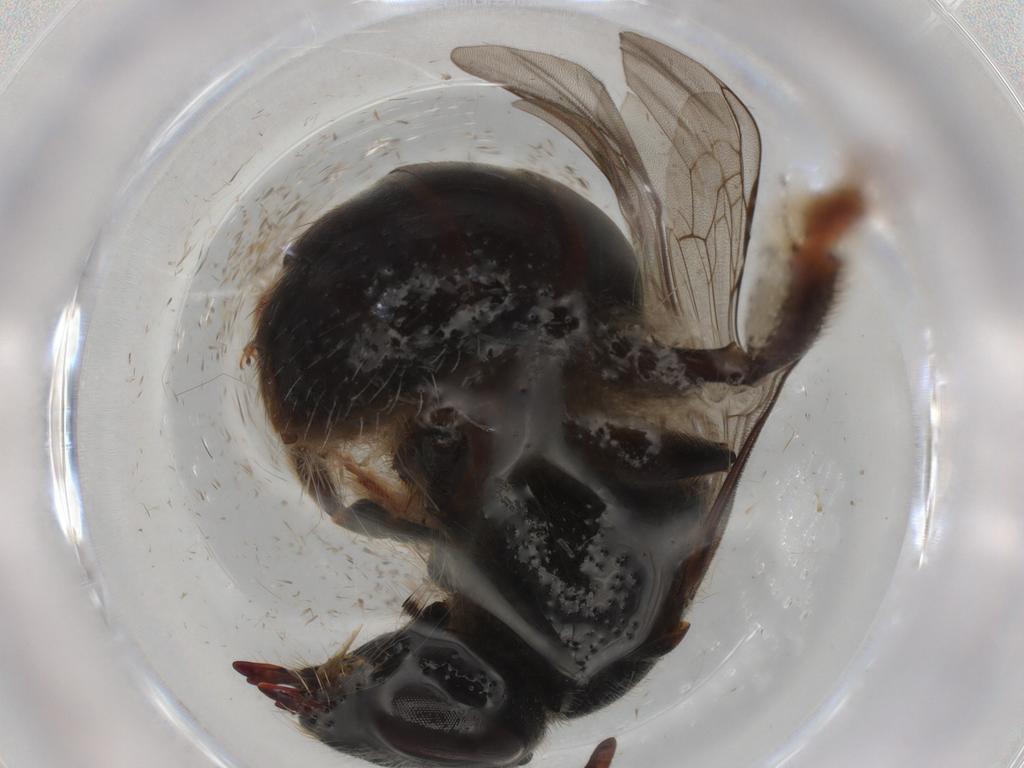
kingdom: Animalia
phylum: Arthropoda
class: Insecta
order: Hymenoptera
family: Halictidae
